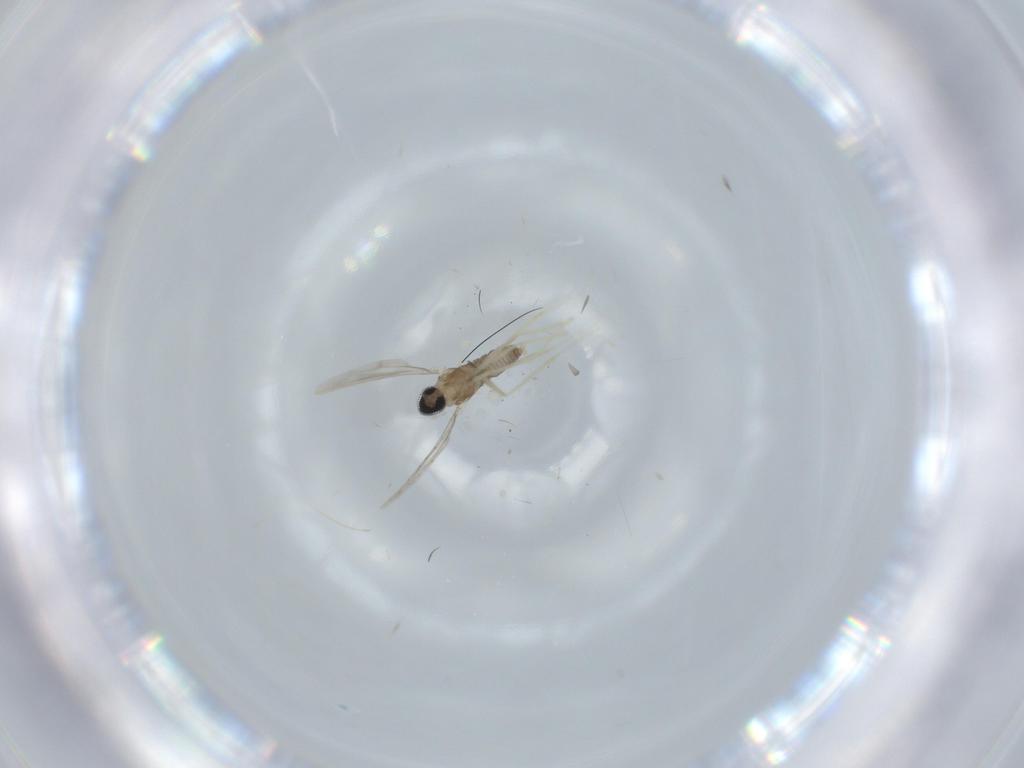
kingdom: Animalia
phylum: Arthropoda
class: Insecta
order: Diptera
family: Cecidomyiidae
